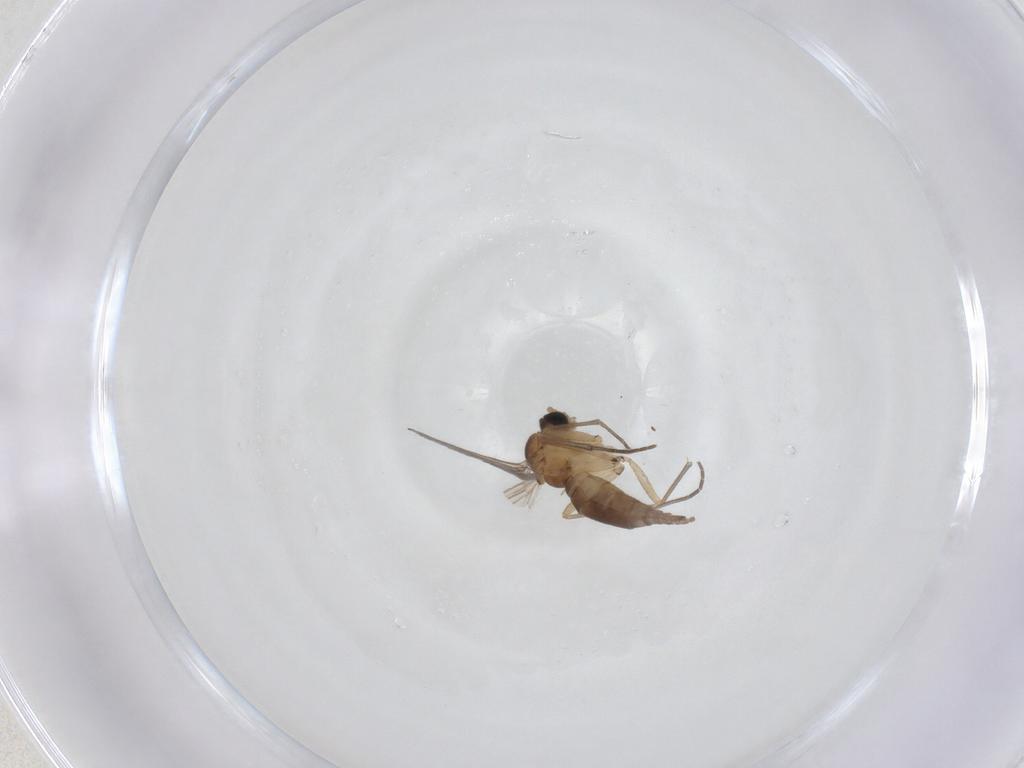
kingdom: Animalia
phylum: Arthropoda
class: Insecta
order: Diptera
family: Sciaridae
